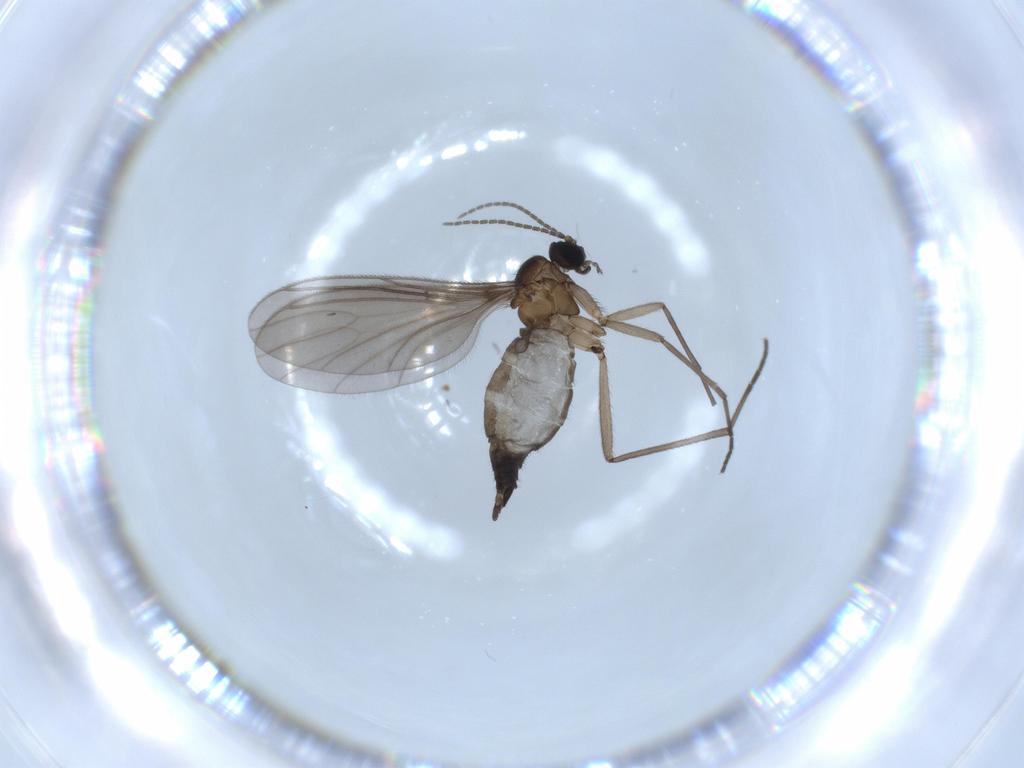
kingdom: Animalia
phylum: Arthropoda
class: Insecta
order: Diptera
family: Sciaridae
